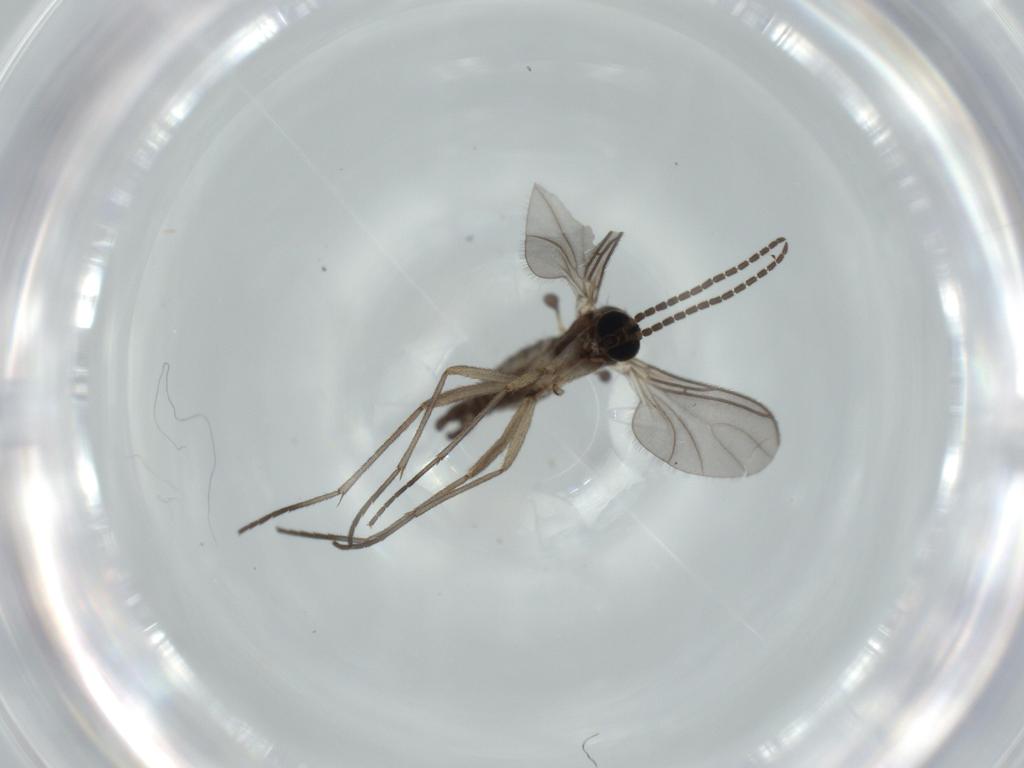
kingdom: Animalia
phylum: Arthropoda
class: Insecta
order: Diptera
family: Sciaridae
